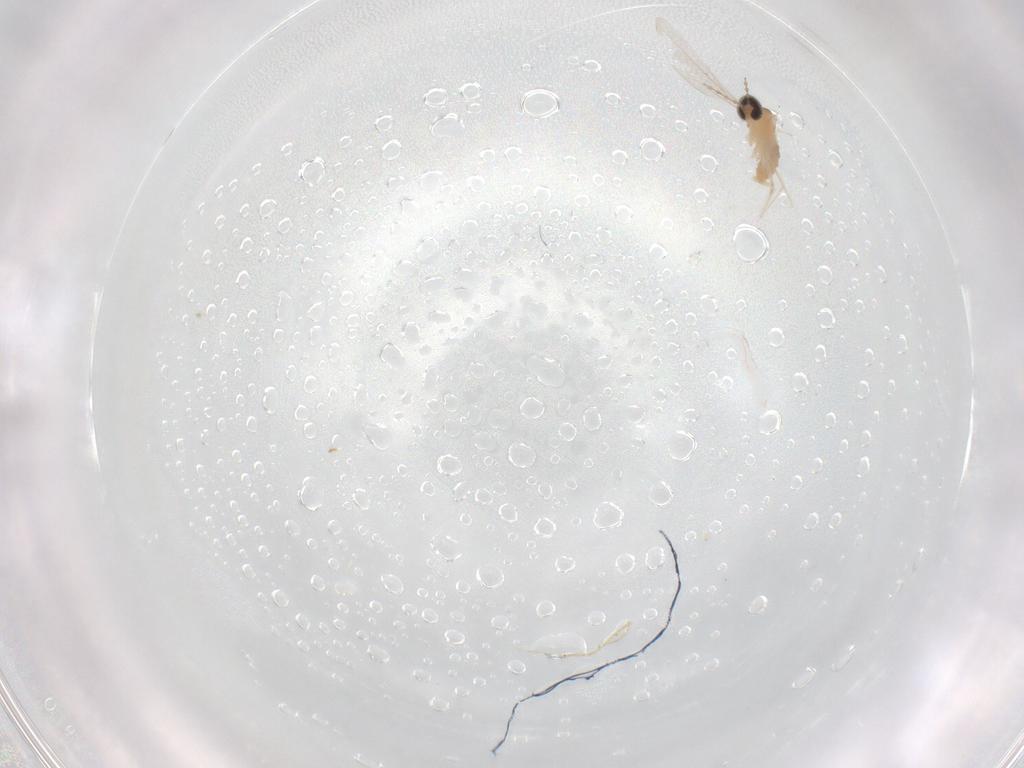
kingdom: Animalia
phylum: Arthropoda
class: Insecta
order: Diptera
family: Cecidomyiidae
